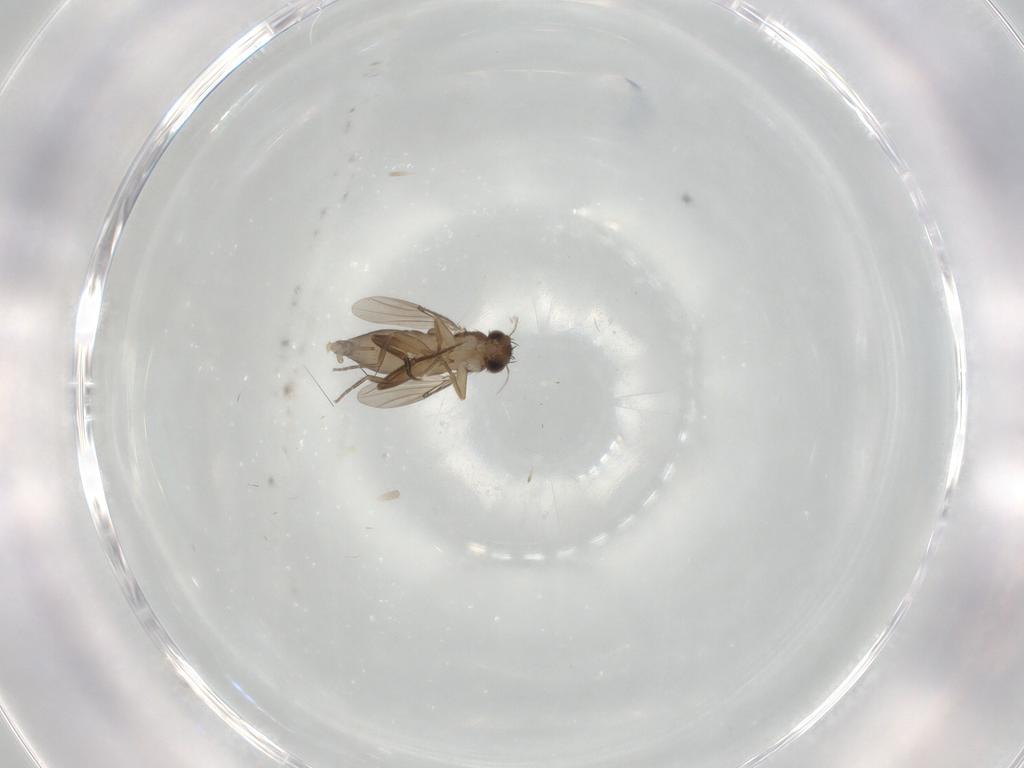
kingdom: Animalia
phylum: Arthropoda
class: Insecta
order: Diptera
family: Phoridae
